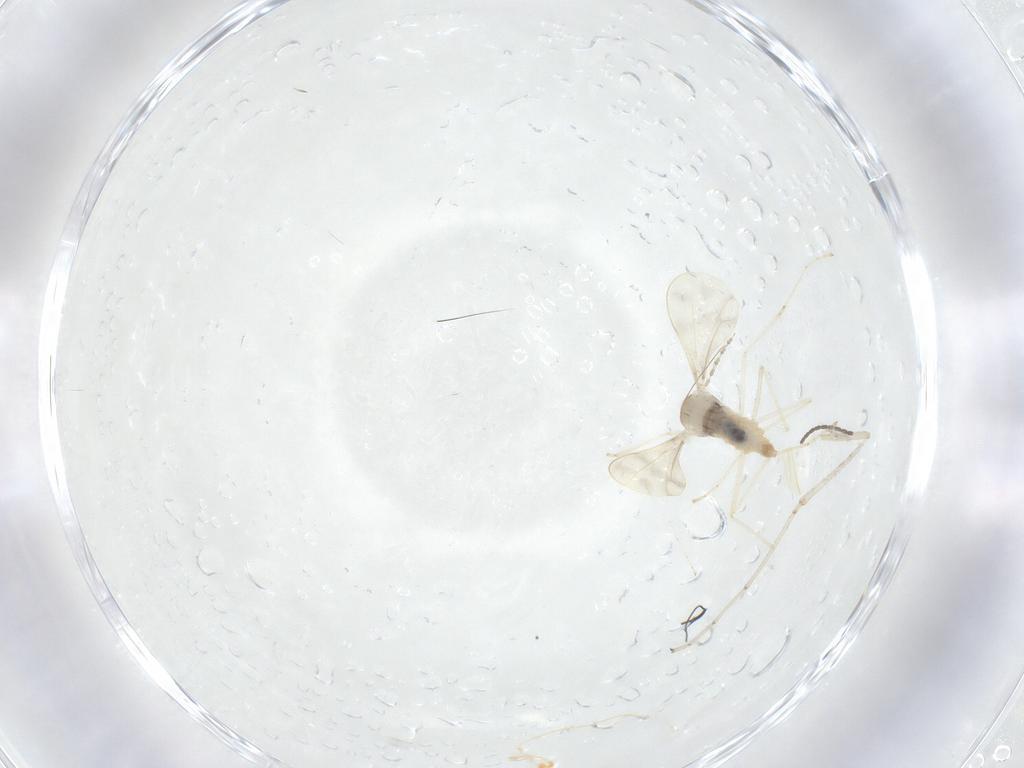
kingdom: Animalia
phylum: Arthropoda
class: Insecta
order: Diptera
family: Cecidomyiidae
